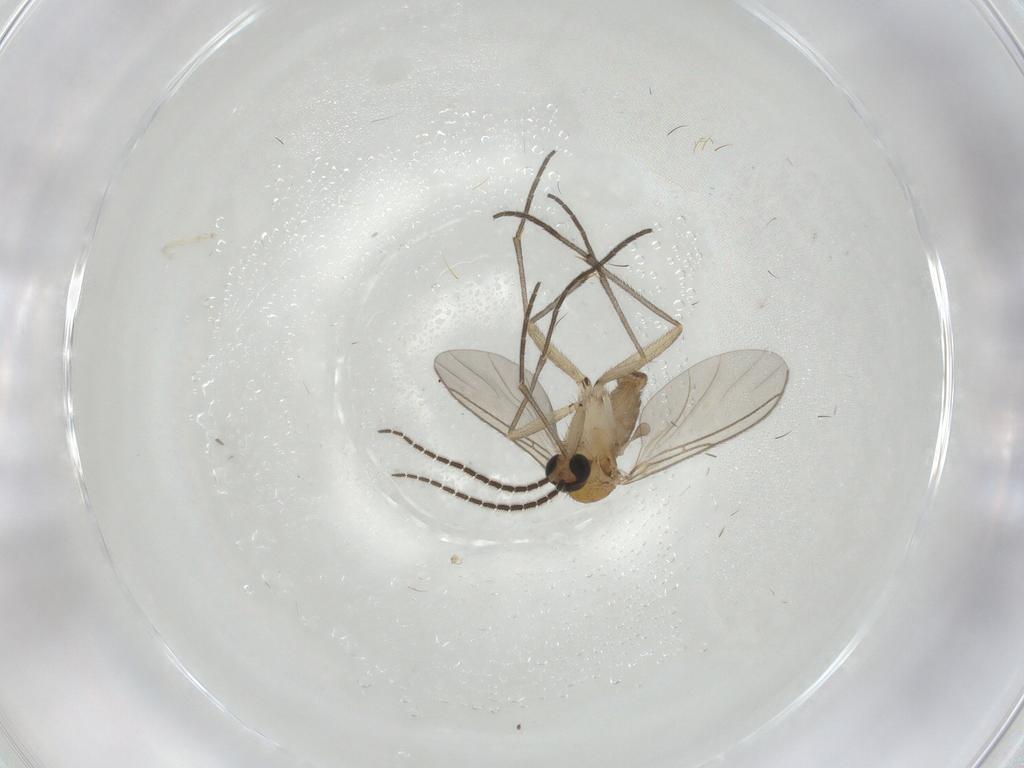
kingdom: Animalia
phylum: Arthropoda
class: Insecta
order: Diptera
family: Sciaridae
